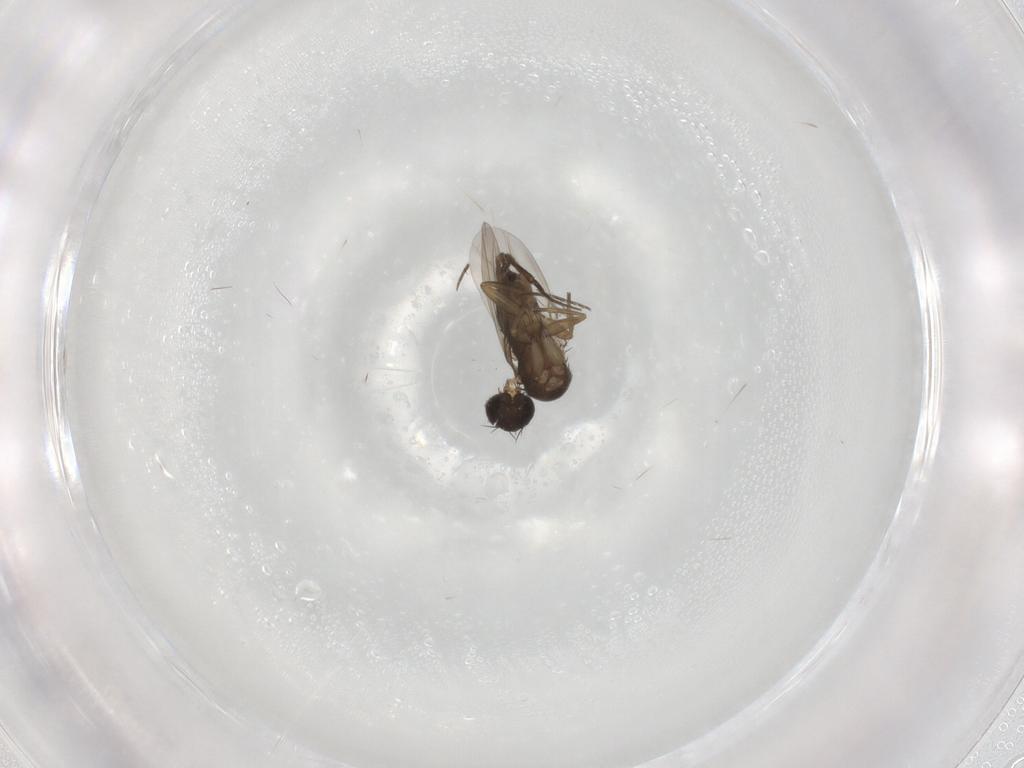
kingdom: Animalia
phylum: Arthropoda
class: Insecta
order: Diptera
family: Phoridae
